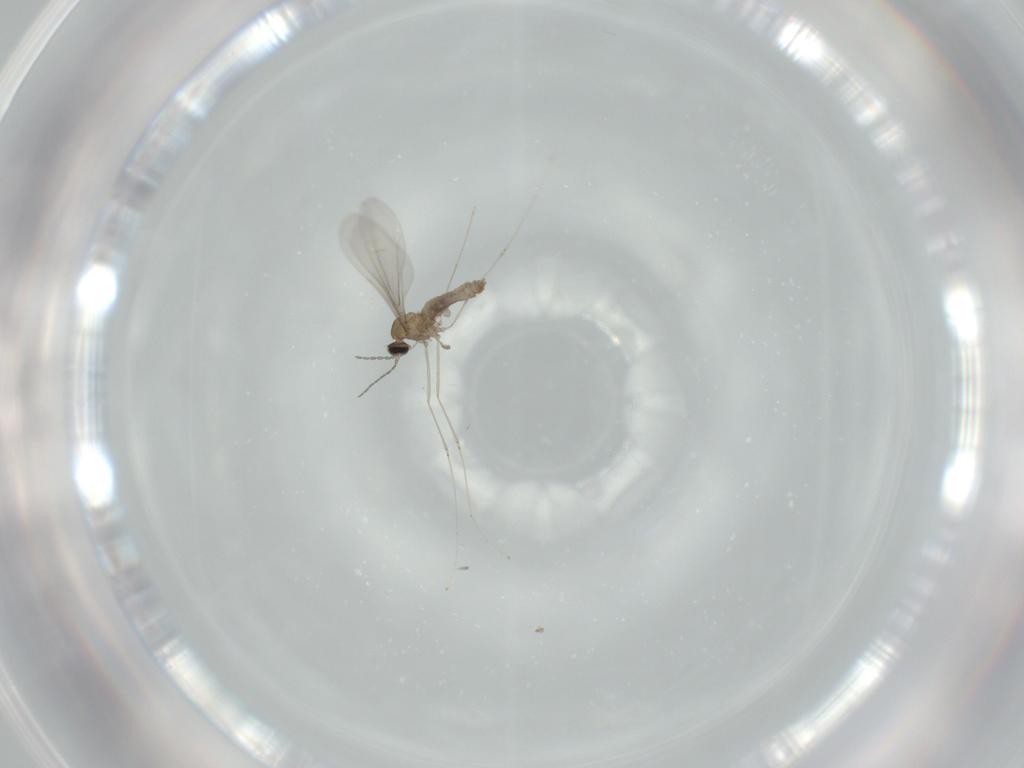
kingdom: Animalia
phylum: Arthropoda
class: Insecta
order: Diptera
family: Cecidomyiidae
